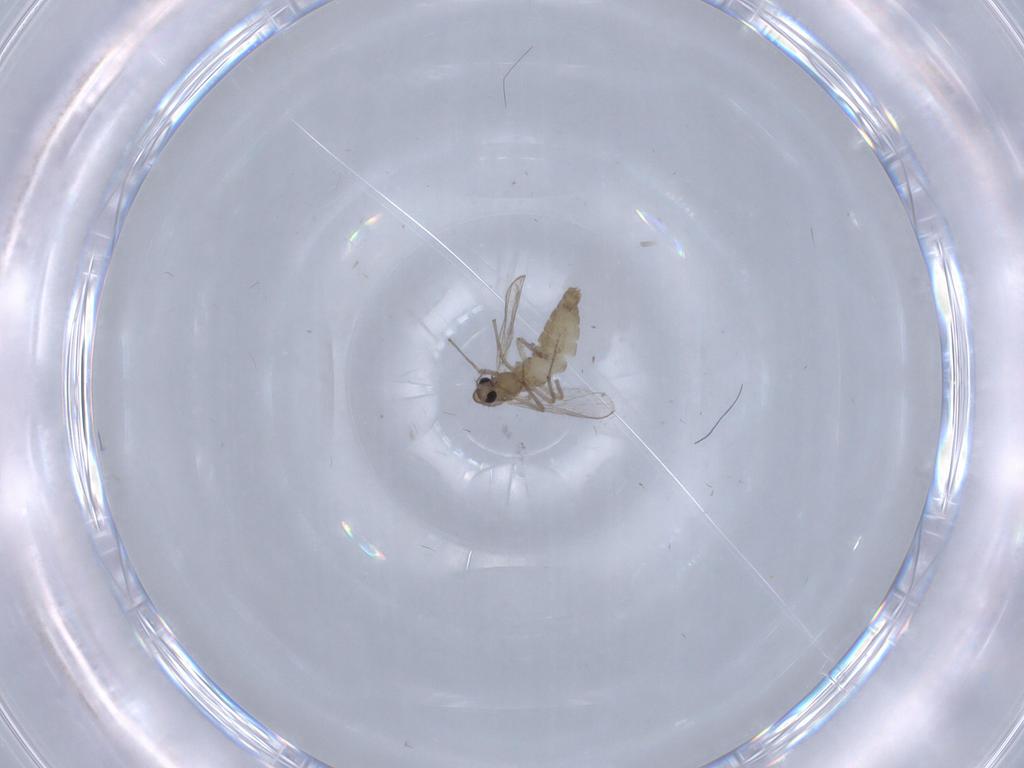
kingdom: Animalia
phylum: Arthropoda
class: Insecta
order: Diptera
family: Chironomidae
